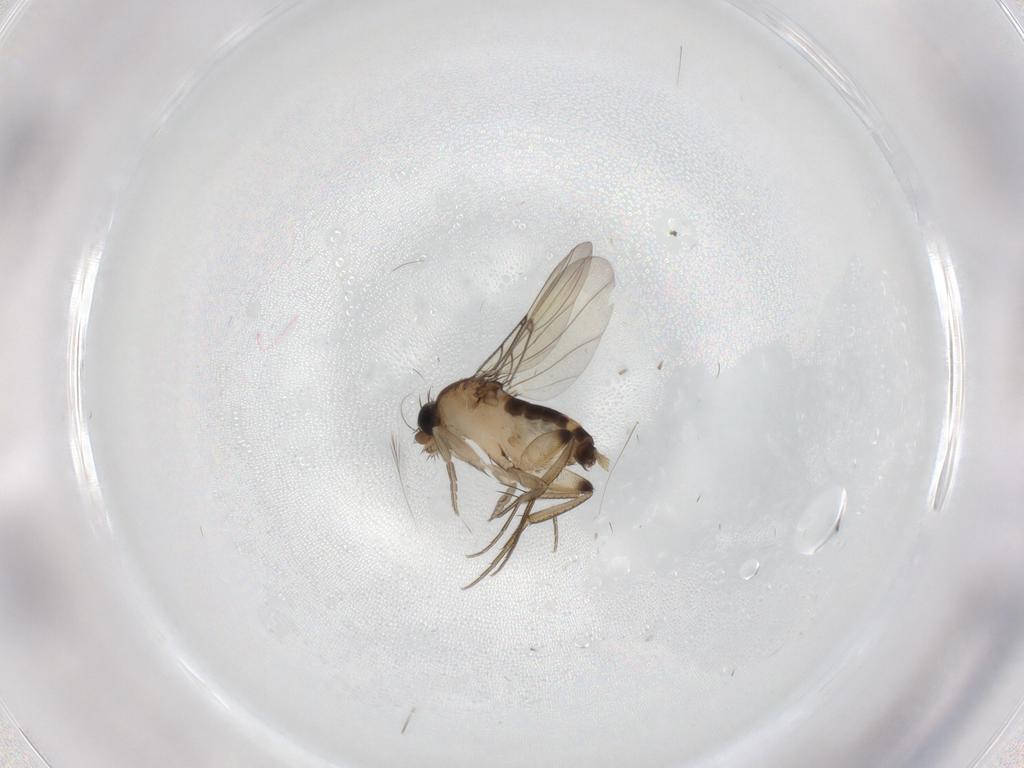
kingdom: Animalia
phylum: Arthropoda
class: Insecta
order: Diptera
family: Phoridae
